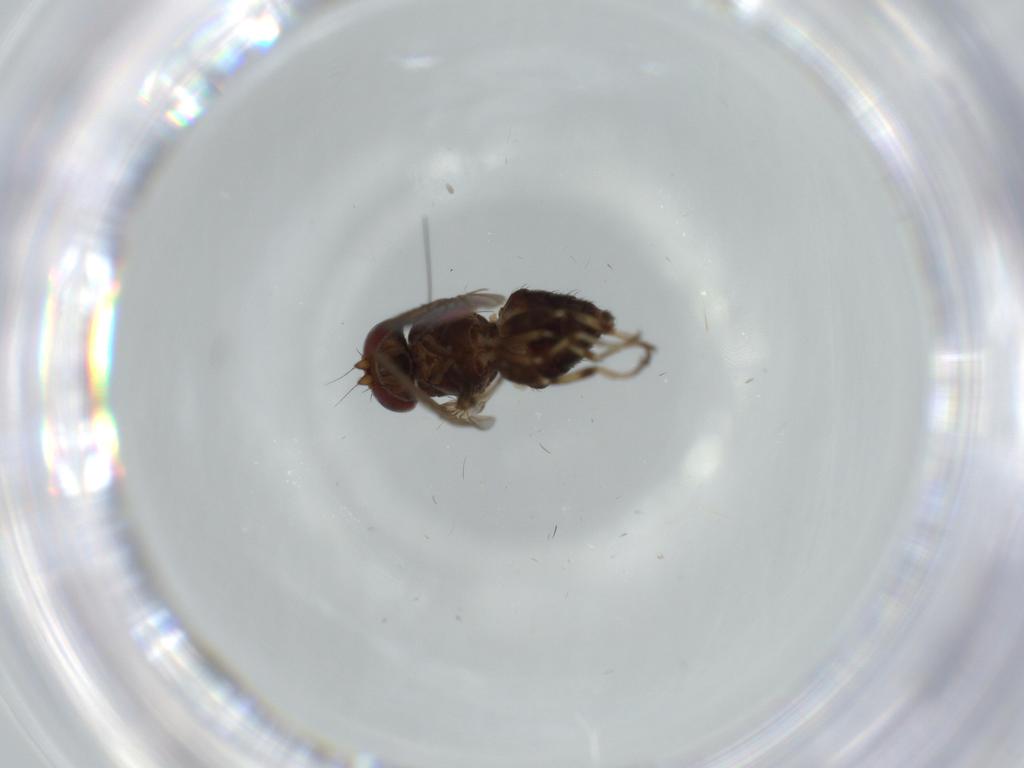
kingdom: Animalia
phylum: Arthropoda
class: Insecta
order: Diptera
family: Heleomyzidae
